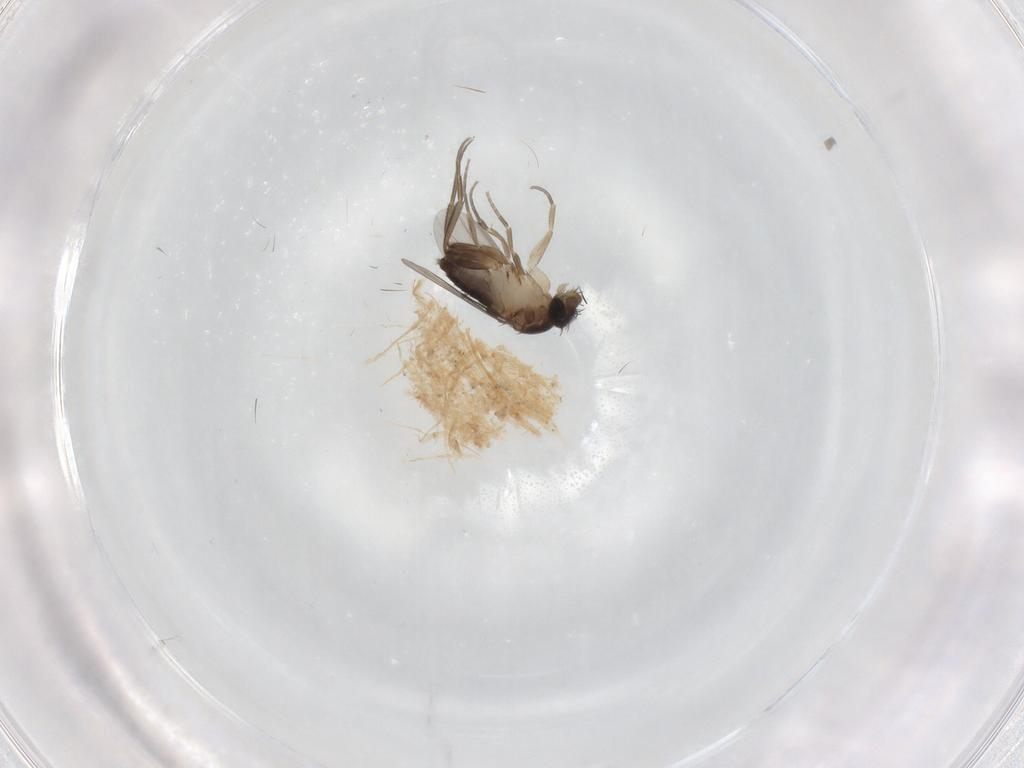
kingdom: Animalia
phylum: Arthropoda
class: Insecta
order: Diptera
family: Phoridae
